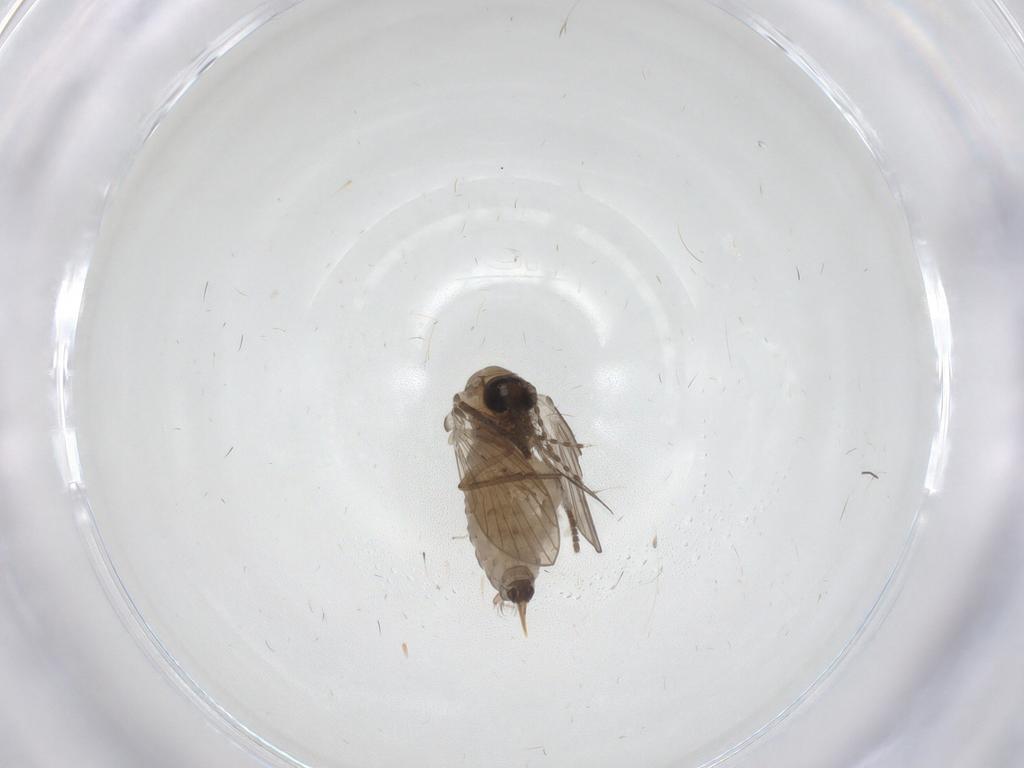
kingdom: Animalia
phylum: Arthropoda
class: Insecta
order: Diptera
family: Psychodidae
